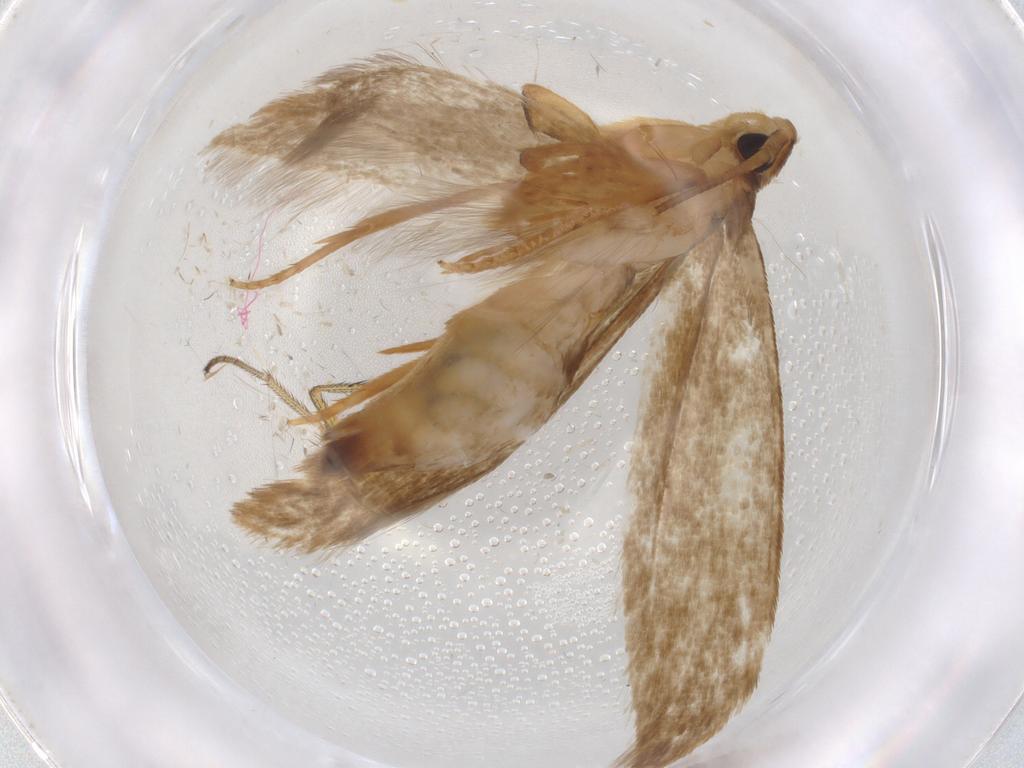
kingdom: Animalia
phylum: Arthropoda
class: Insecta
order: Lepidoptera
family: Tineidae
